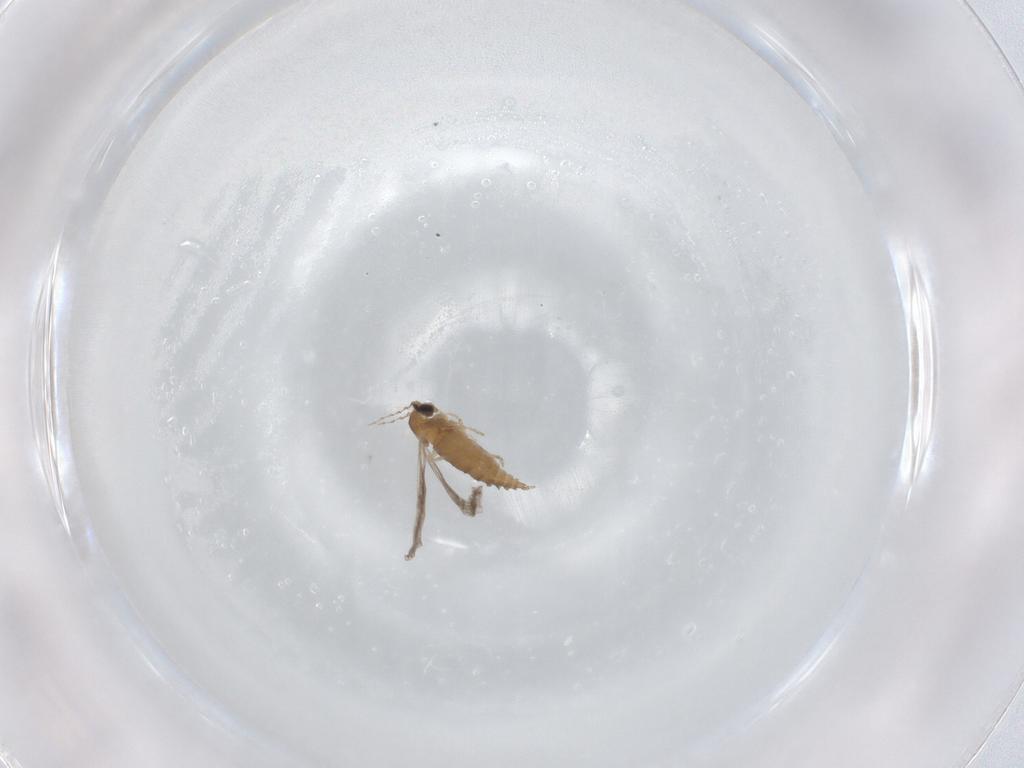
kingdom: Animalia
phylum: Arthropoda
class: Insecta
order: Diptera
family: Cecidomyiidae
